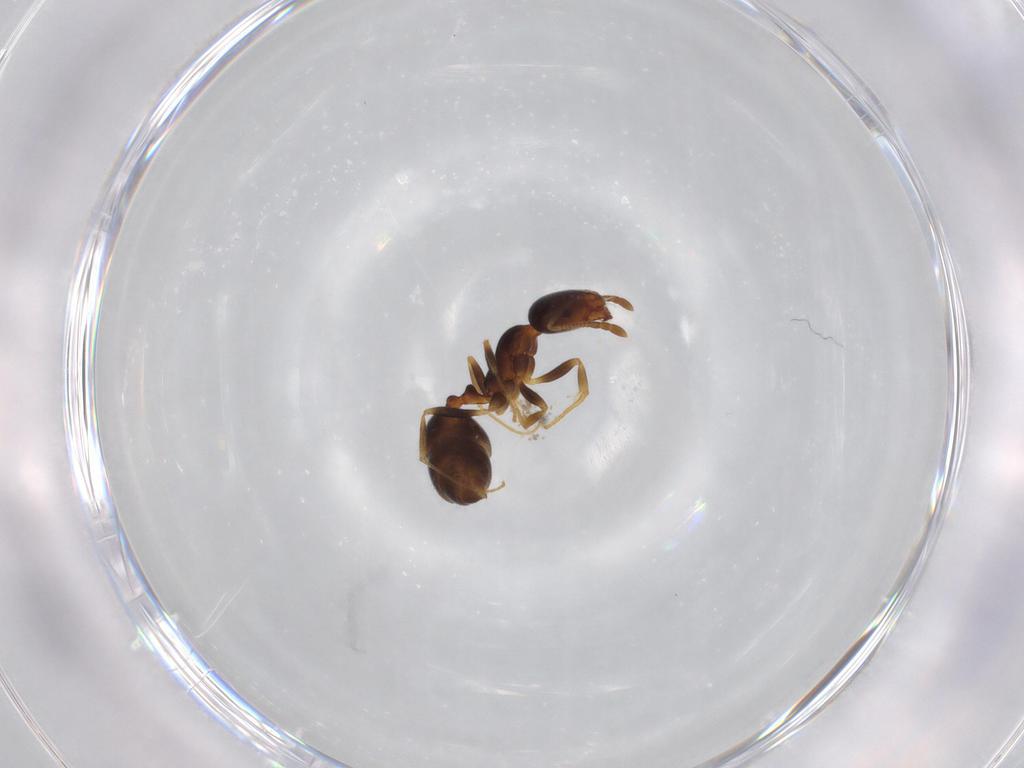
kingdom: Animalia
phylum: Arthropoda
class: Insecta
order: Hymenoptera
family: Formicidae
